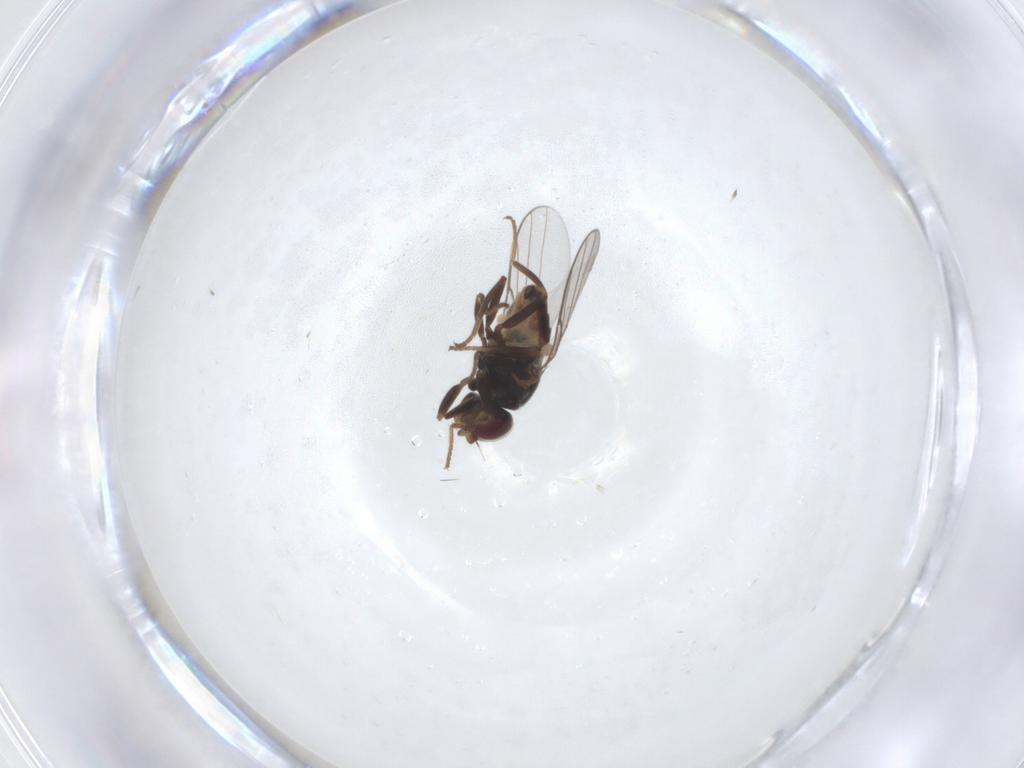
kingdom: Animalia
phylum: Arthropoda
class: Insecta
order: Diptera
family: Chloropidae
